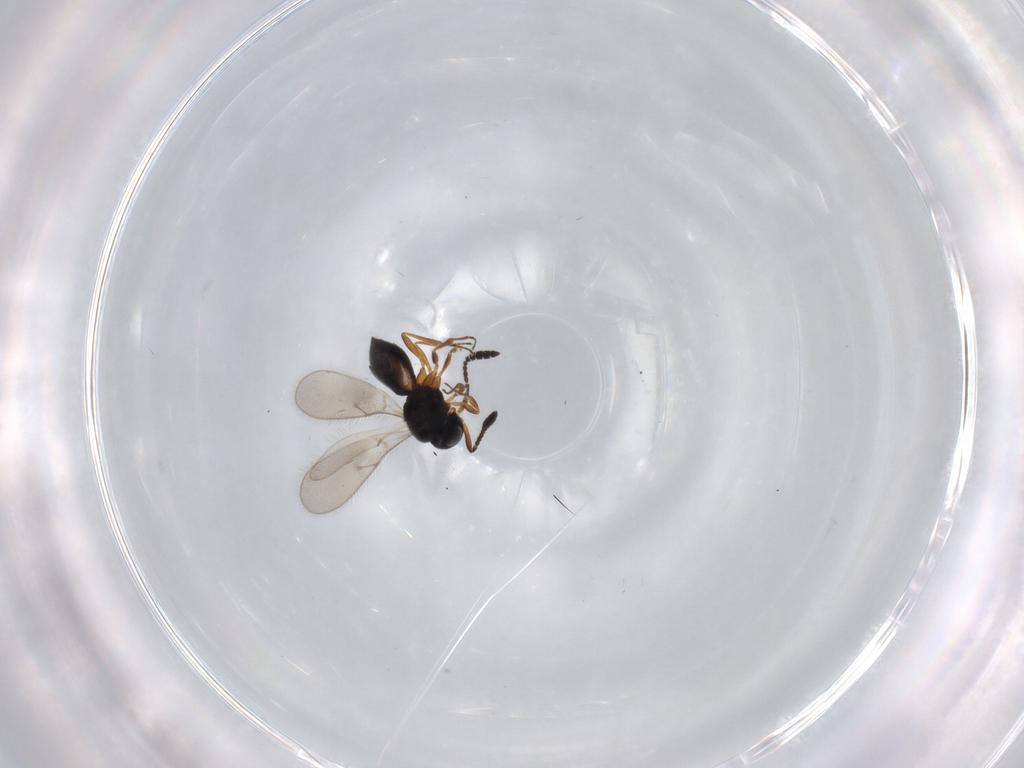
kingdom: Animalia
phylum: Arthropoda
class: Insecta
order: Hymenoptera
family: Scelionidae
